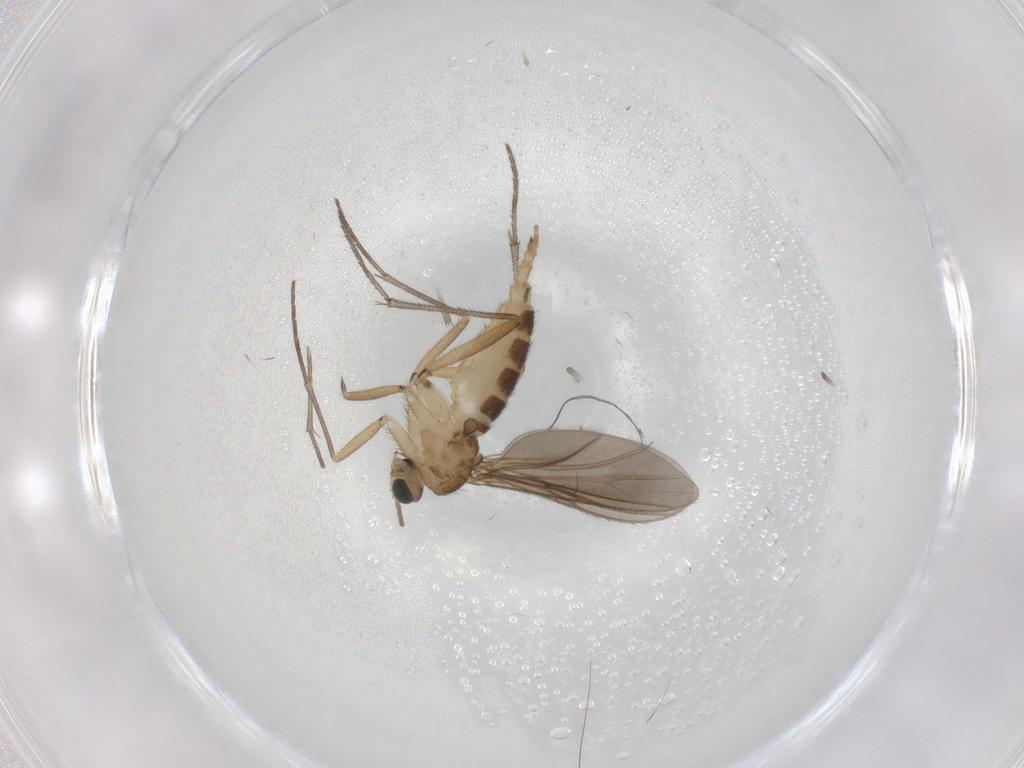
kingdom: Animalia
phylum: Arthropoda
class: Insecta
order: Diptera
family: Sciaridae
